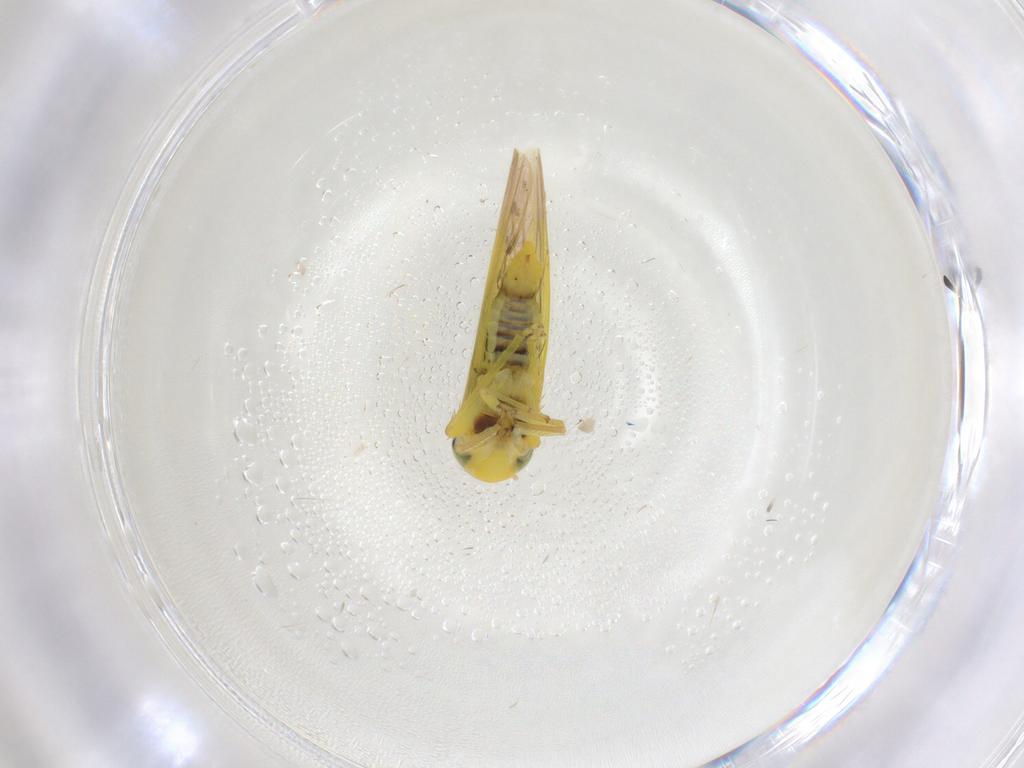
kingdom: Animalia
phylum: Arthropoda
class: Insecta
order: Hemiptera
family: Cicadellidae
